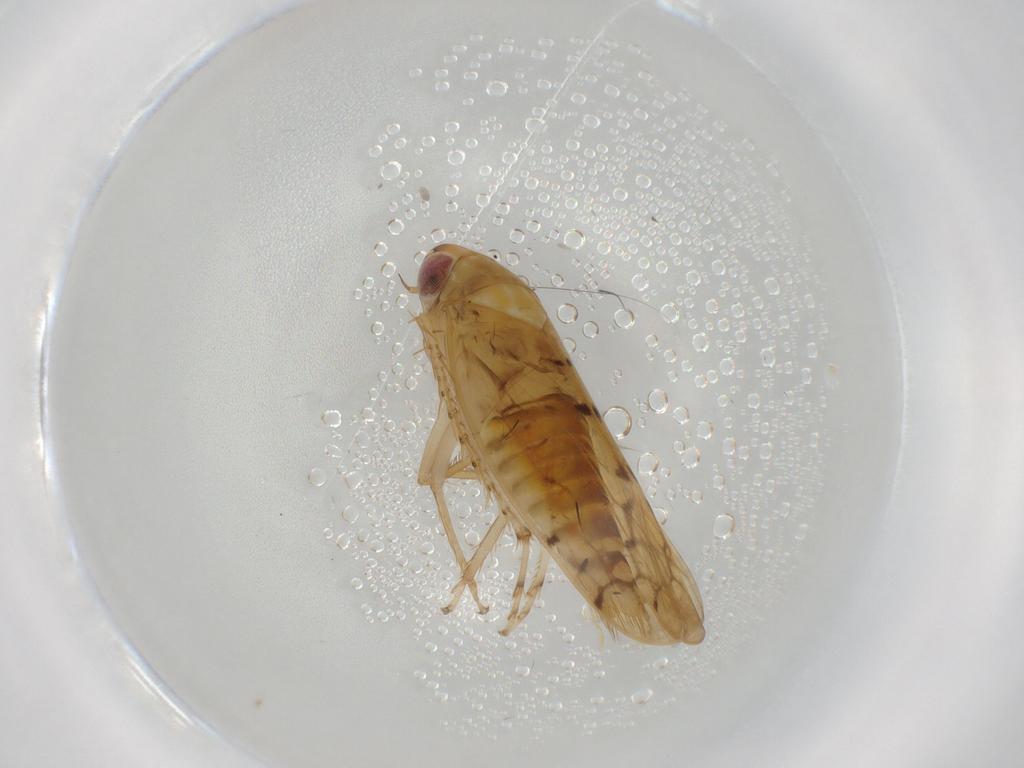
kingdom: Animalia
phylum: Arthropoda
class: Insecta
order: Hemiptera
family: Cicadellidae
